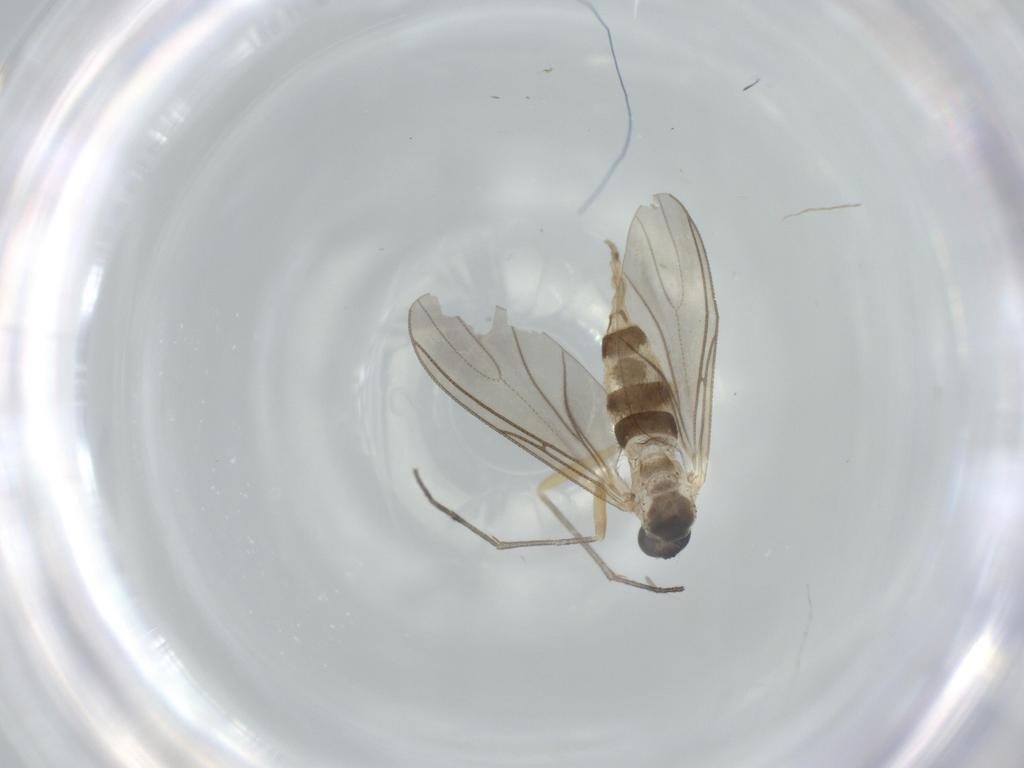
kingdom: Animalia
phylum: Arthropoda
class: Insecta
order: Diptera
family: Sciaridae
